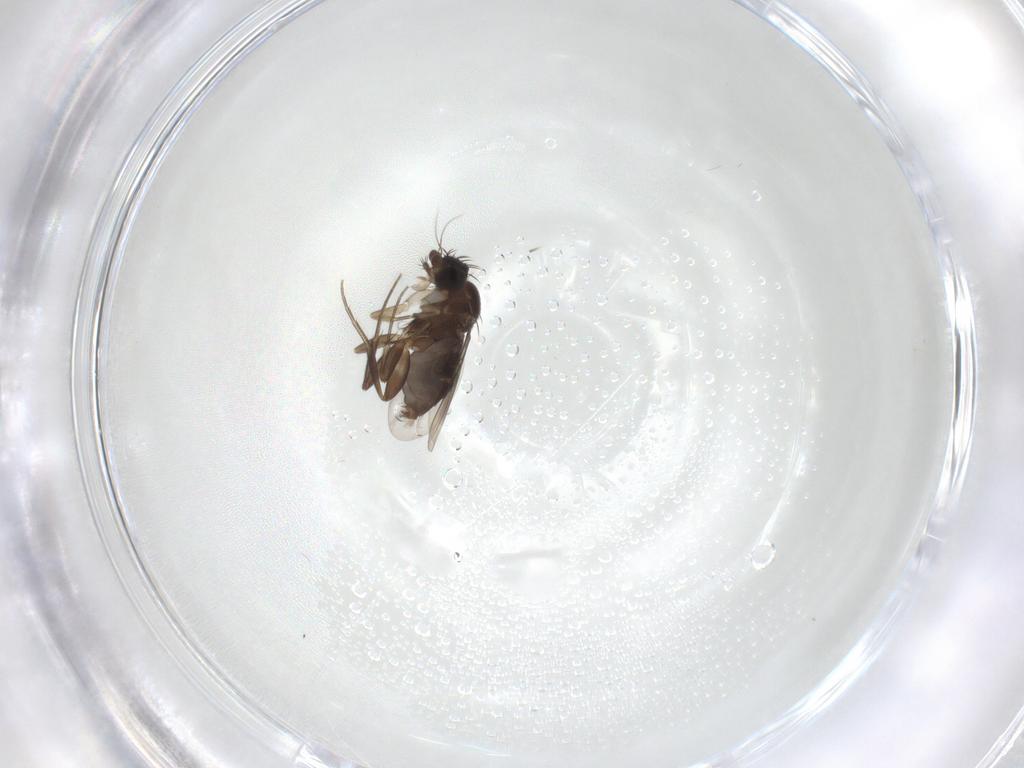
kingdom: Animalia
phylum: Arthropoda
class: Insecta
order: Diptera
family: Phoridae
